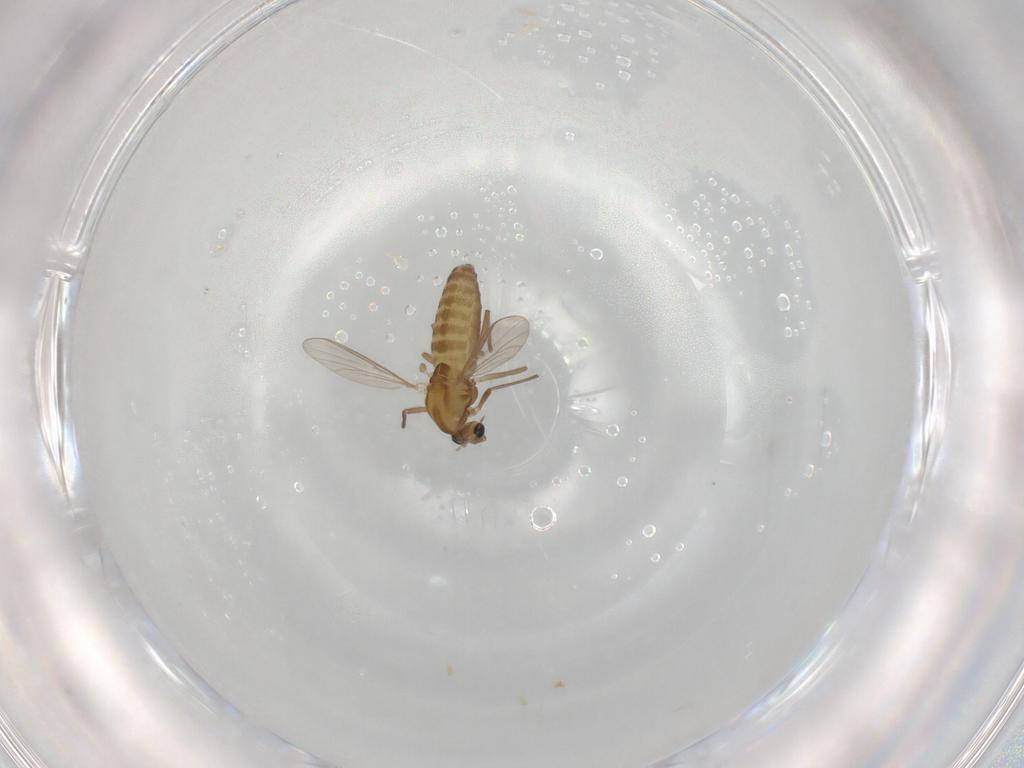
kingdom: Animalia
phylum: Arthropoda
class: Insecta
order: Diptera
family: Chironomidae
